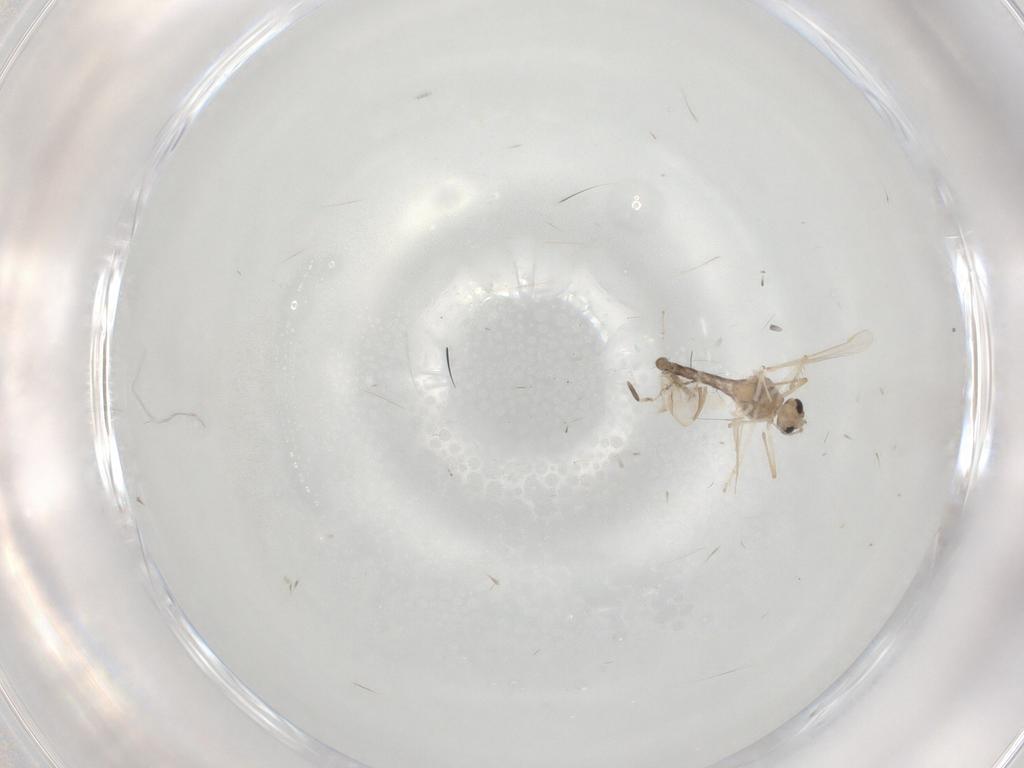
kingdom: Animalia
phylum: Arthropoda
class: Insecta
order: Diptera
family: Chironomidae
